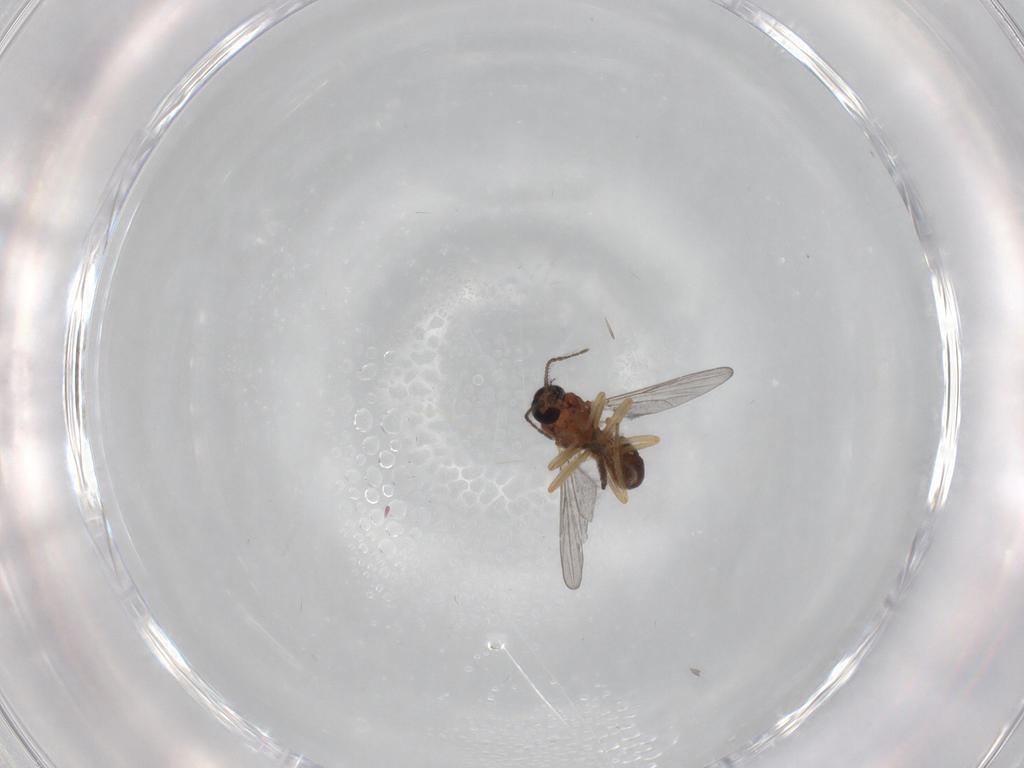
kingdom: Animalia
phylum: Arthropoda
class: Insecta
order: Diptera
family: Ceratopogonidae
